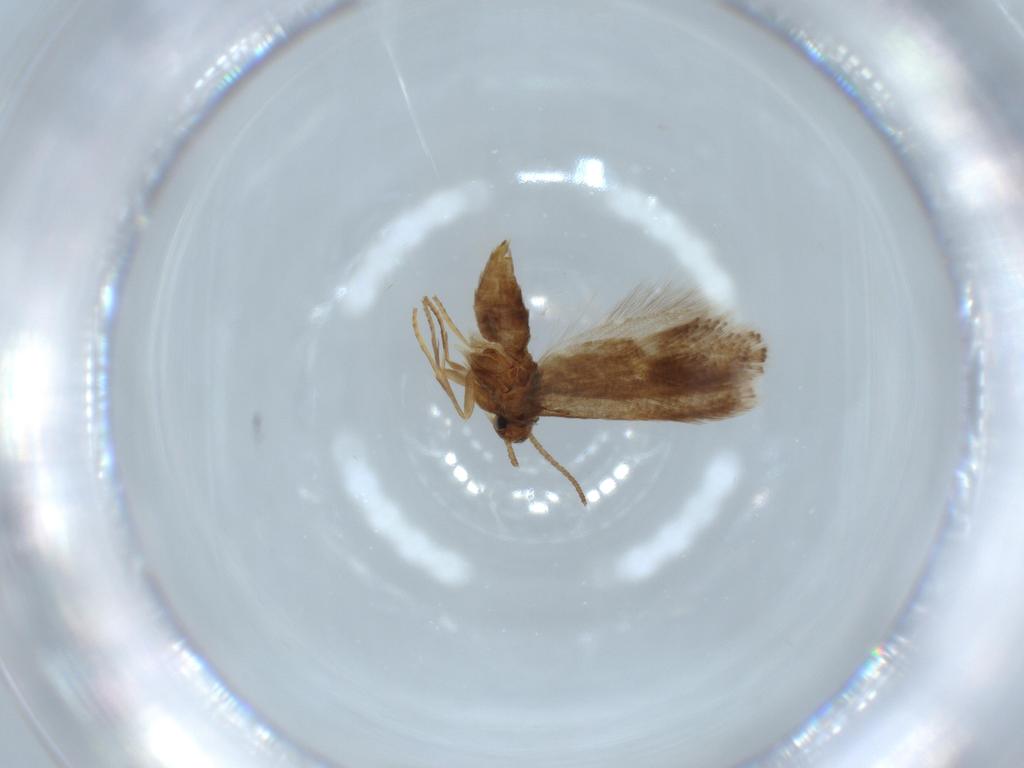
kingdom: Animalia
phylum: Arthropoda
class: Insecta
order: Lepidoptera
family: Heliozelidae
